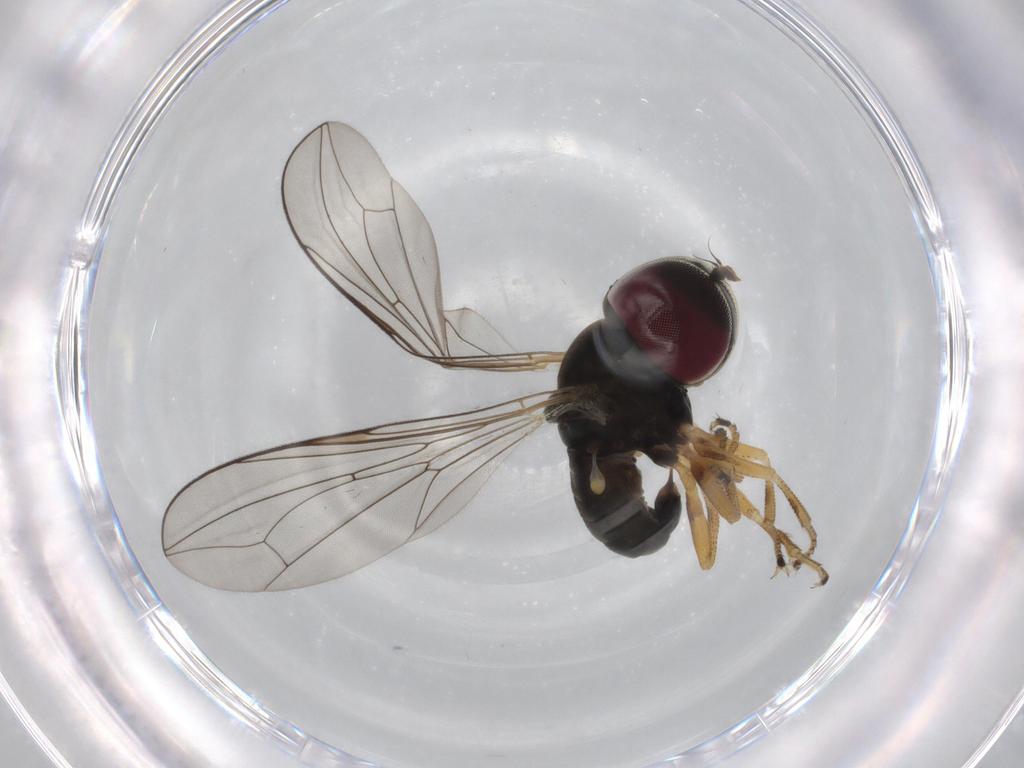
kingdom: Animalia
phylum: Arthropoda
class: Insecta
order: Diptera
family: Pipunculidae
